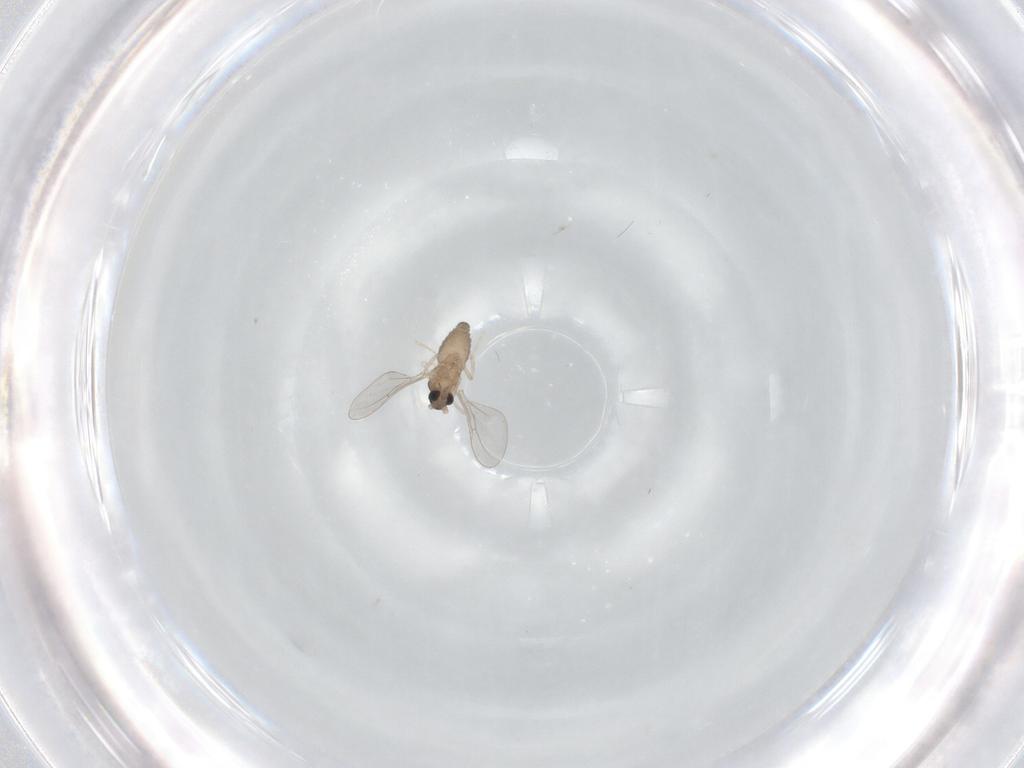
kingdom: Animalia
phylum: Arthropoda
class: Insecta
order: Diptera
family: Cecidomyiidae
